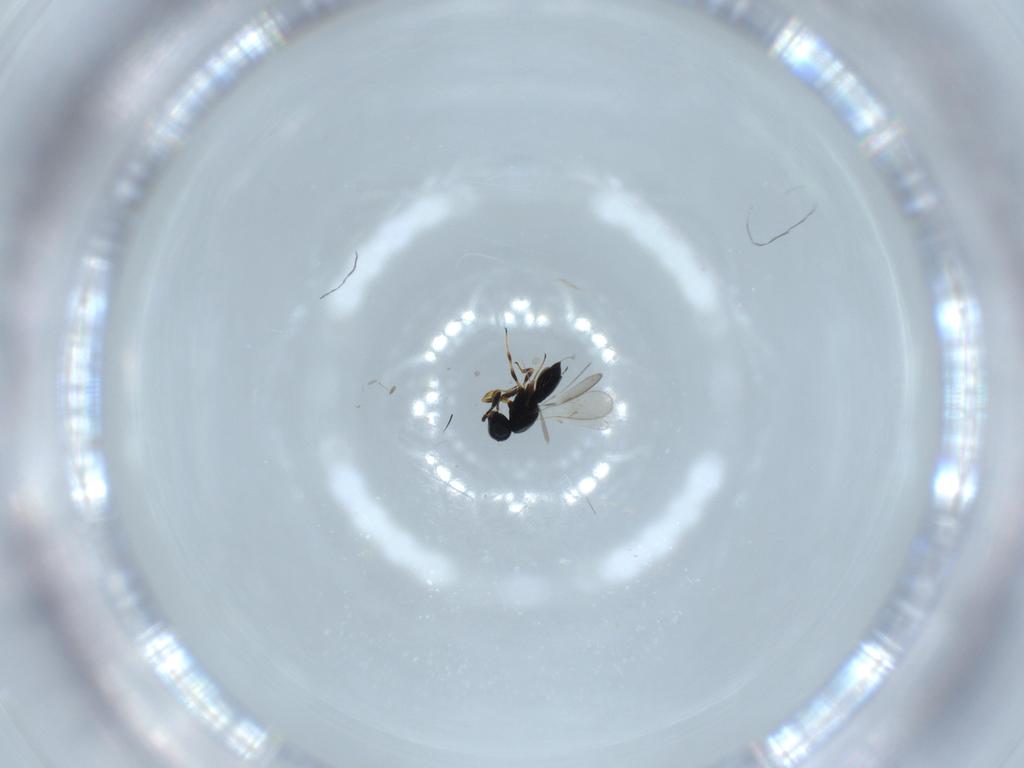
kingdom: Animalia
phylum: Arthropoda
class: Insecta
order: Hymenoptera
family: Scelionidae
